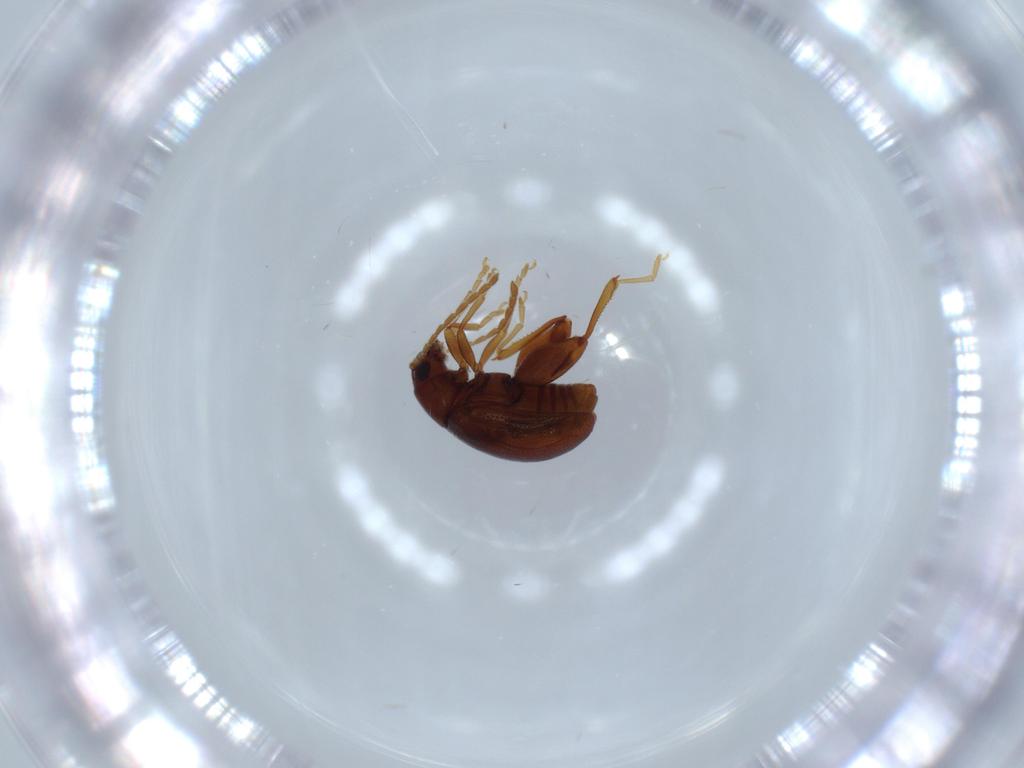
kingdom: Animalia
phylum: Arthropoda
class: Insecta
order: Coleoptera
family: Chrysomelidae
